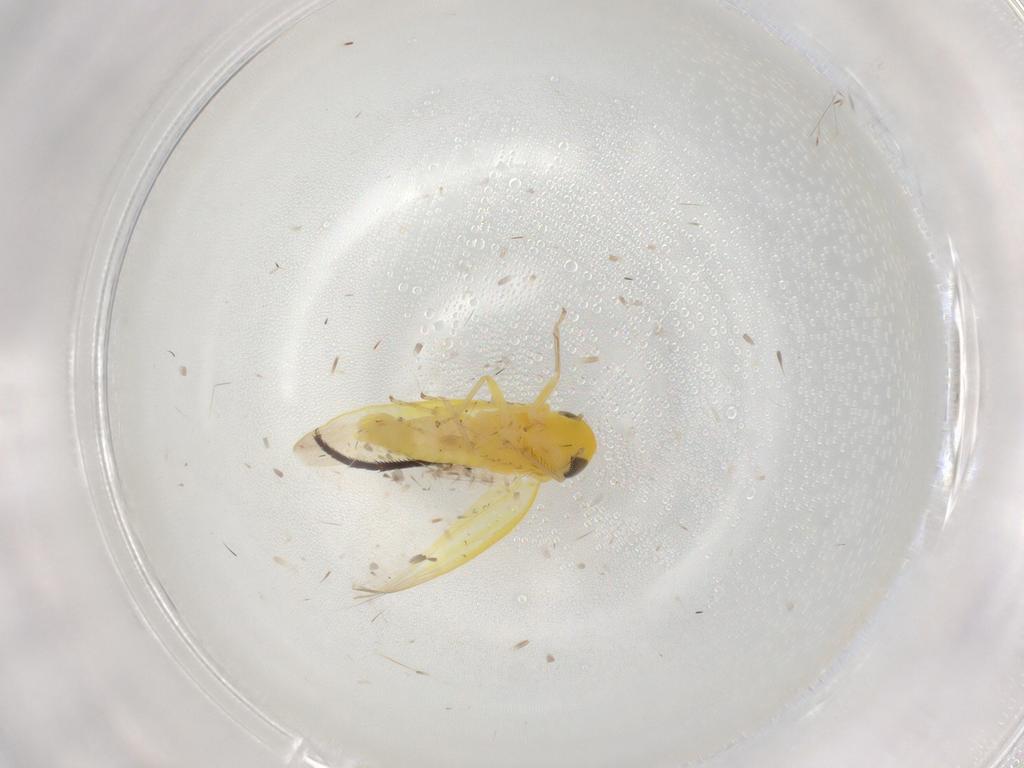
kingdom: Animalia
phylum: Arthropoda
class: Insecta
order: Hemiptera
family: Cicadellidae
